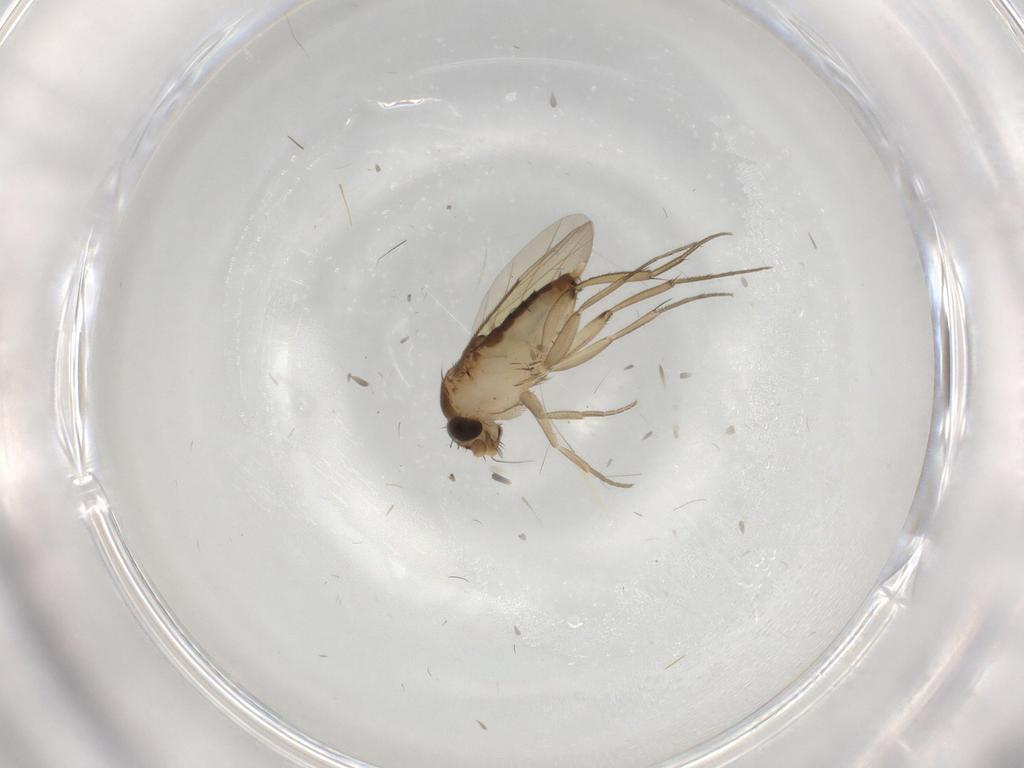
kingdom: Animalia
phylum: Arthropoda
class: Insecta
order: Diptera
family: Phoridae
